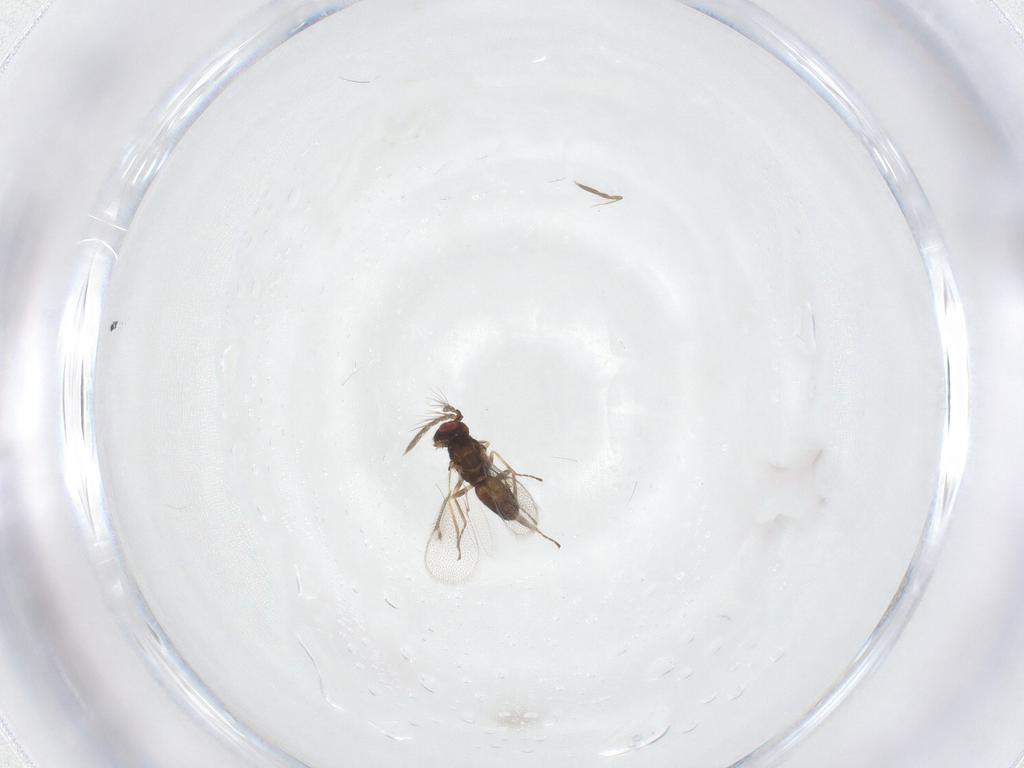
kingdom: Animalia
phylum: Arthropoda
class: Insecta
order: Hymenoptera
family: Eulophidae
